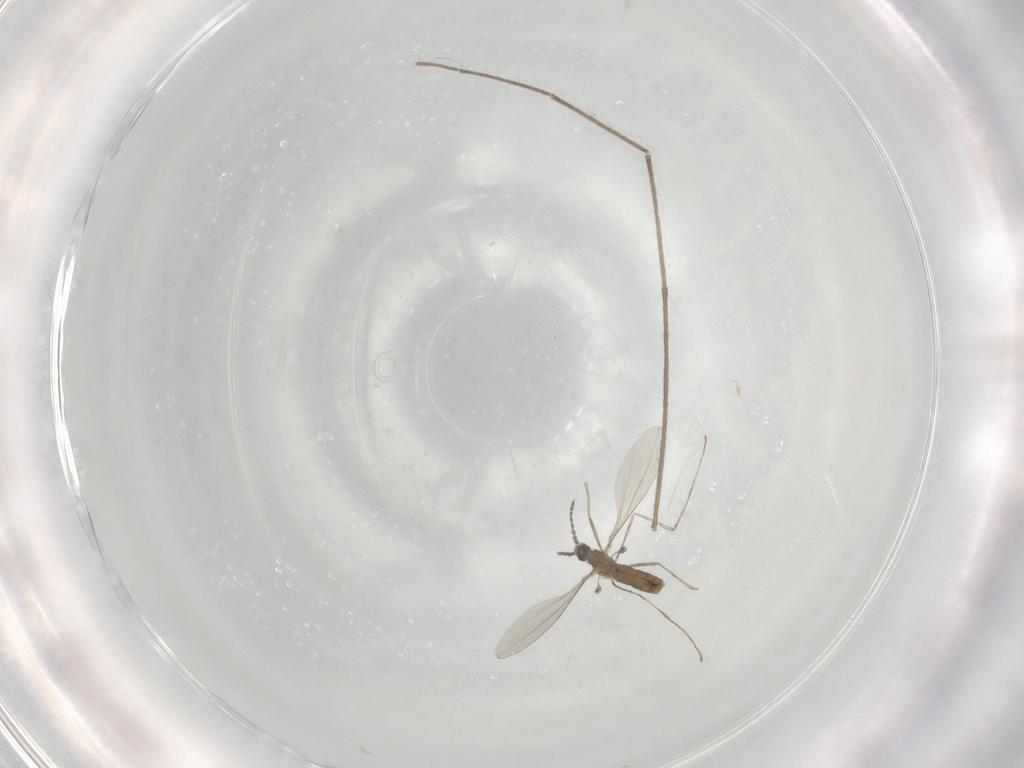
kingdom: Animalia
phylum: Arthropoda
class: Insecta
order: Diptera
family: Chironomidae
